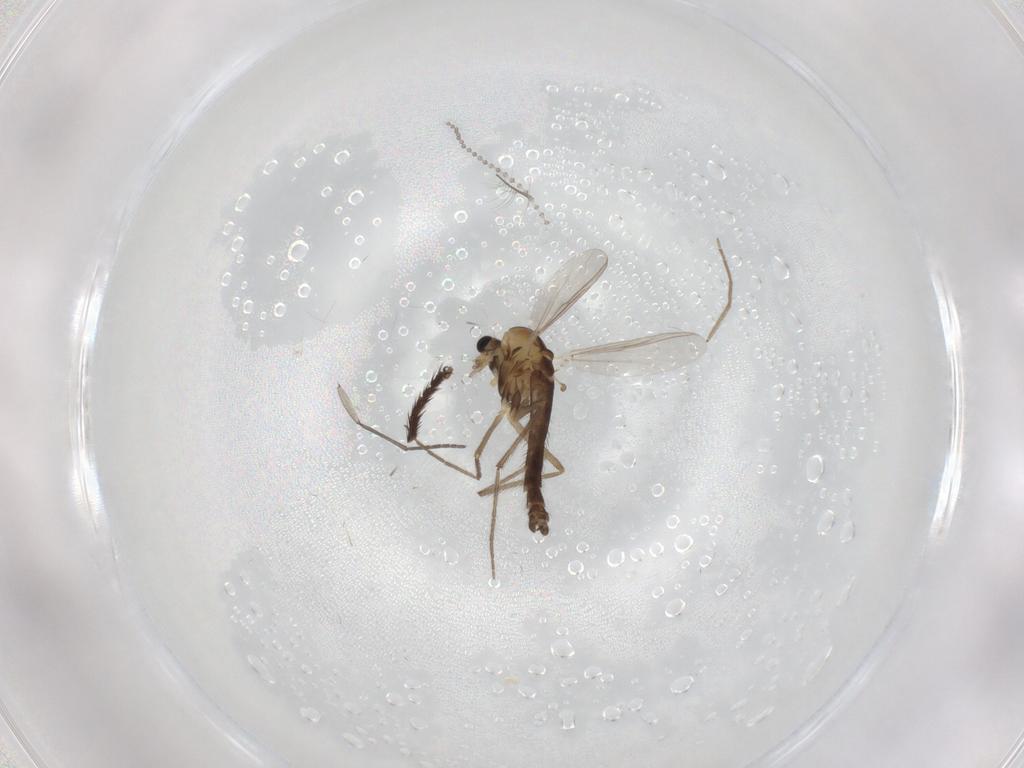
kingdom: Animalia
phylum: Arthropoda
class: Insecta
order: Diptera
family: Chironomidae
